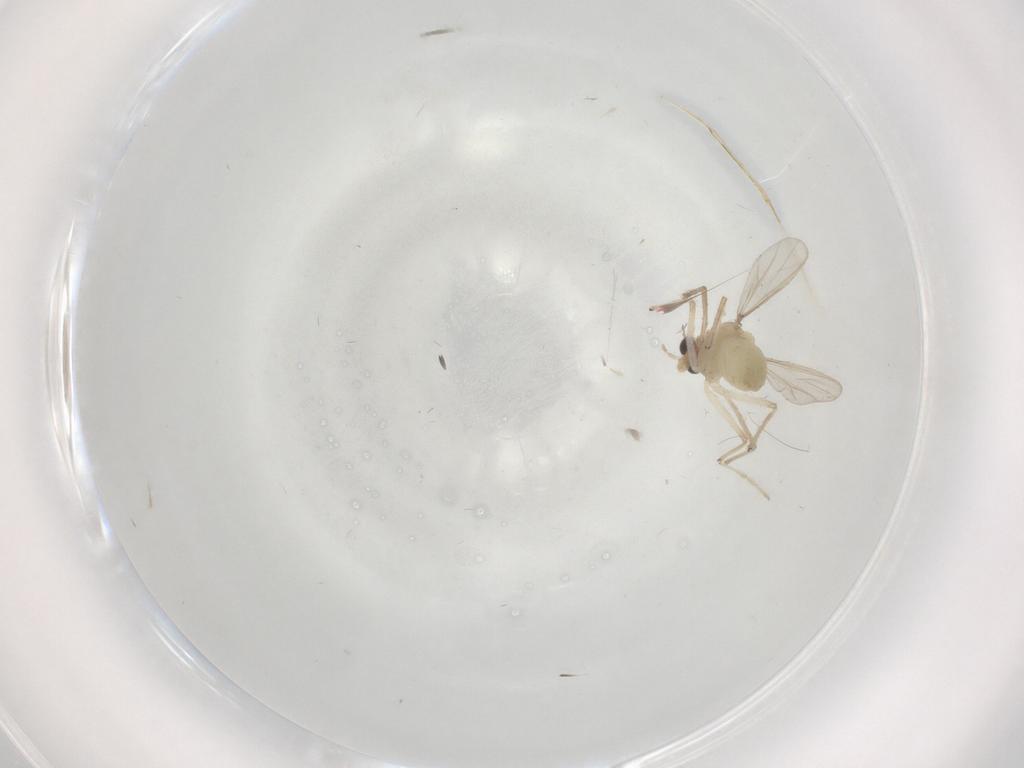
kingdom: Animalia
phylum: Arthropoda
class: Insecta
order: Diptera
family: Chironomidae
